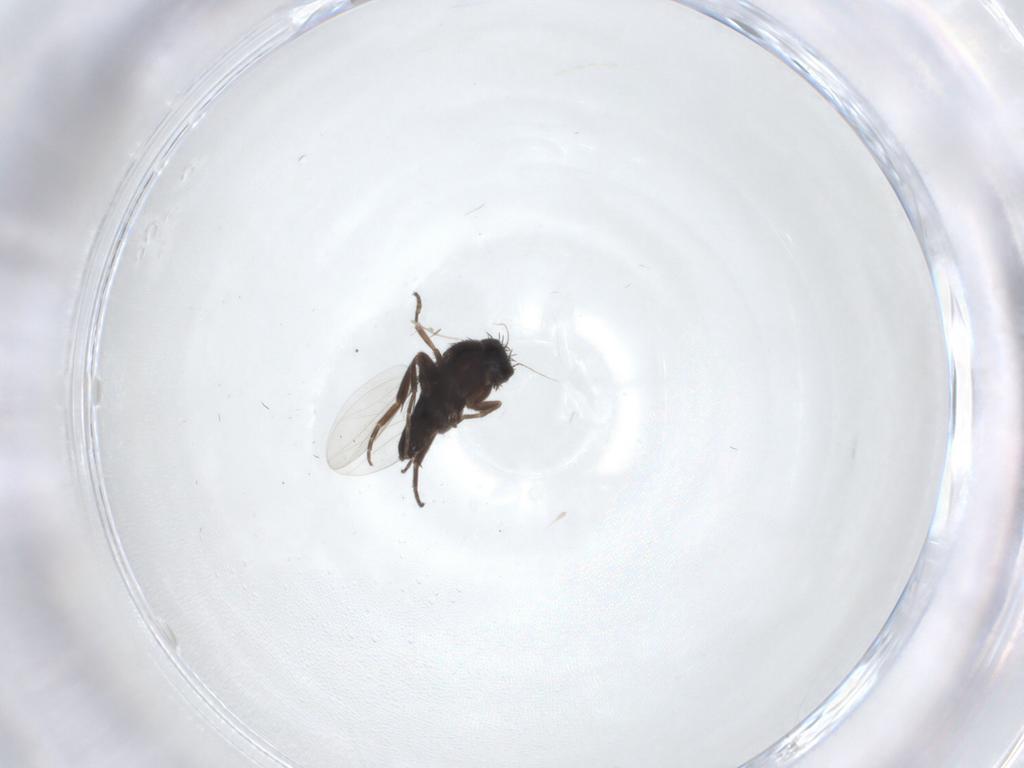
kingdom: Animalia
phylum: Arthropoda
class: Insecta
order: Diptera
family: Phoridae
